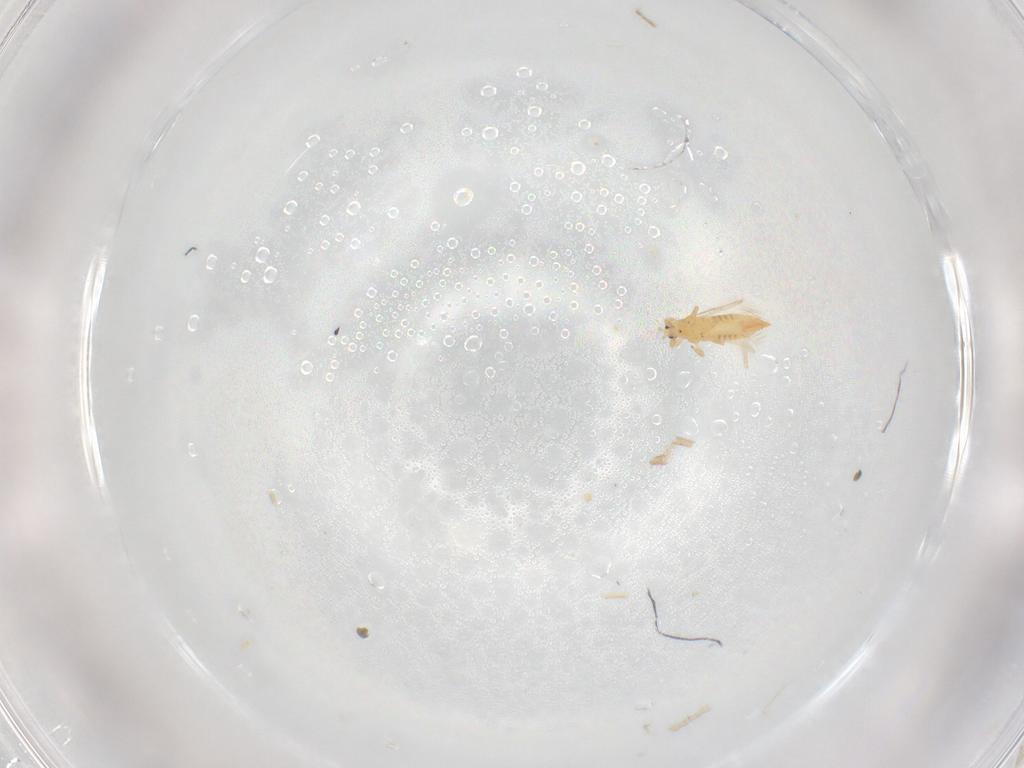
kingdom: Animalia
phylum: Arthropoda
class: Insecta
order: Thysanoptera
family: Thripidae
